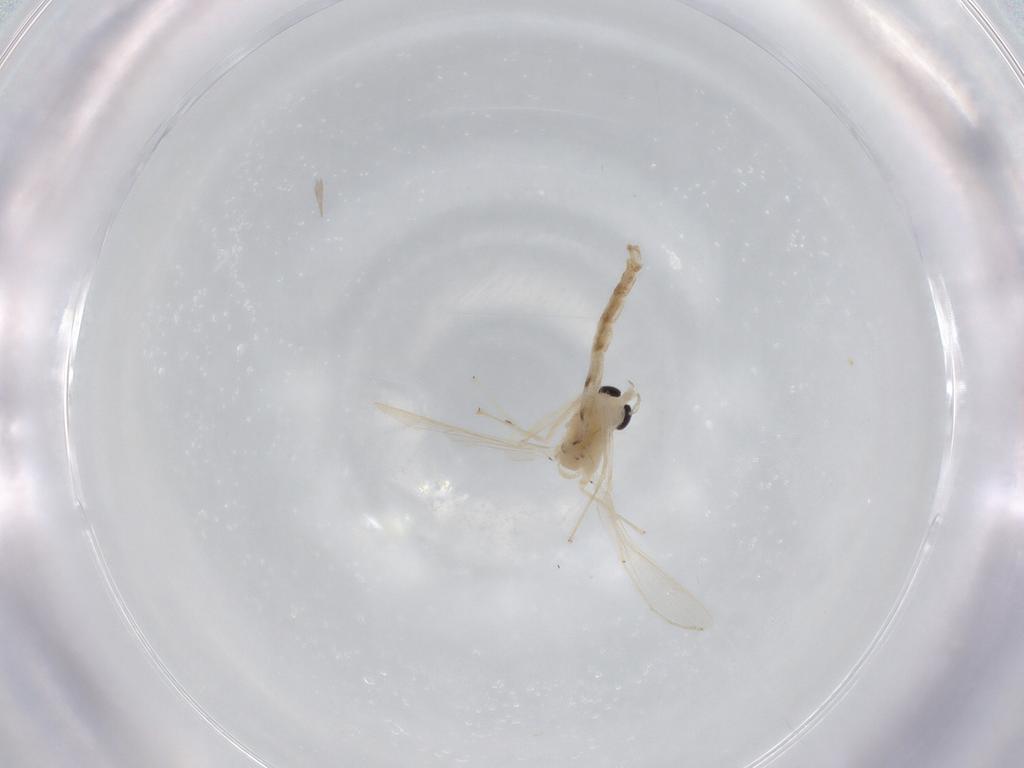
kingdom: Animalia
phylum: Arthropoda
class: Insecta
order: Diptera
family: Chironomidae
